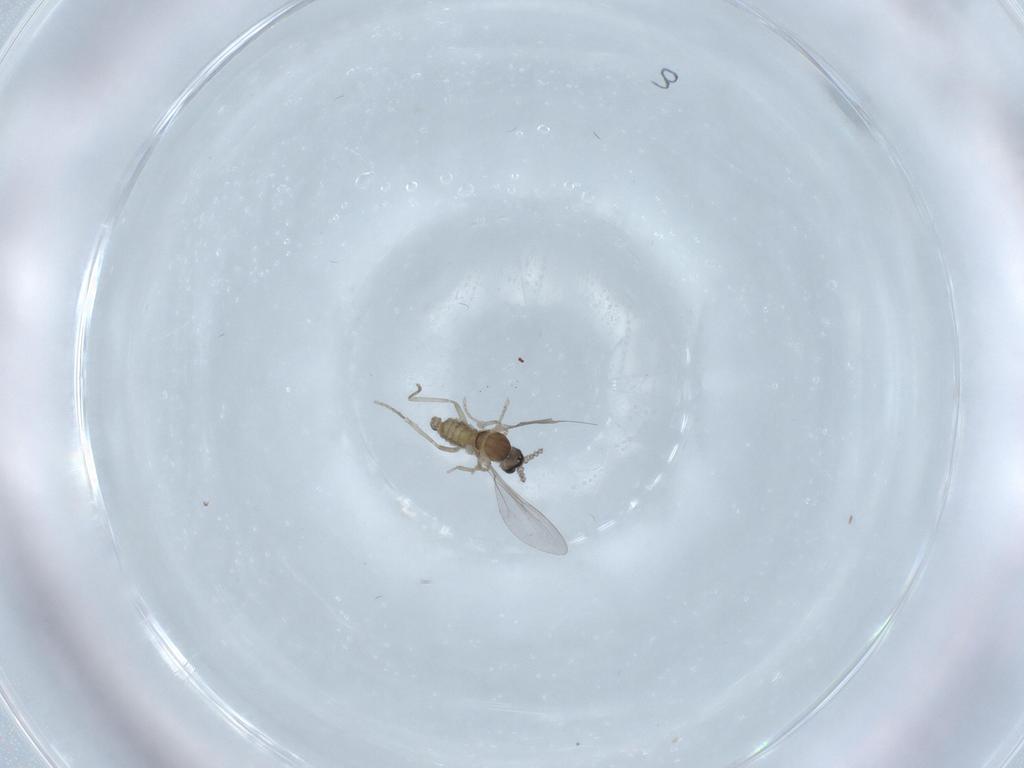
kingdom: Animalia
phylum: Arthropoda
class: Insecta
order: Diptera
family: Cecidomyiidae
